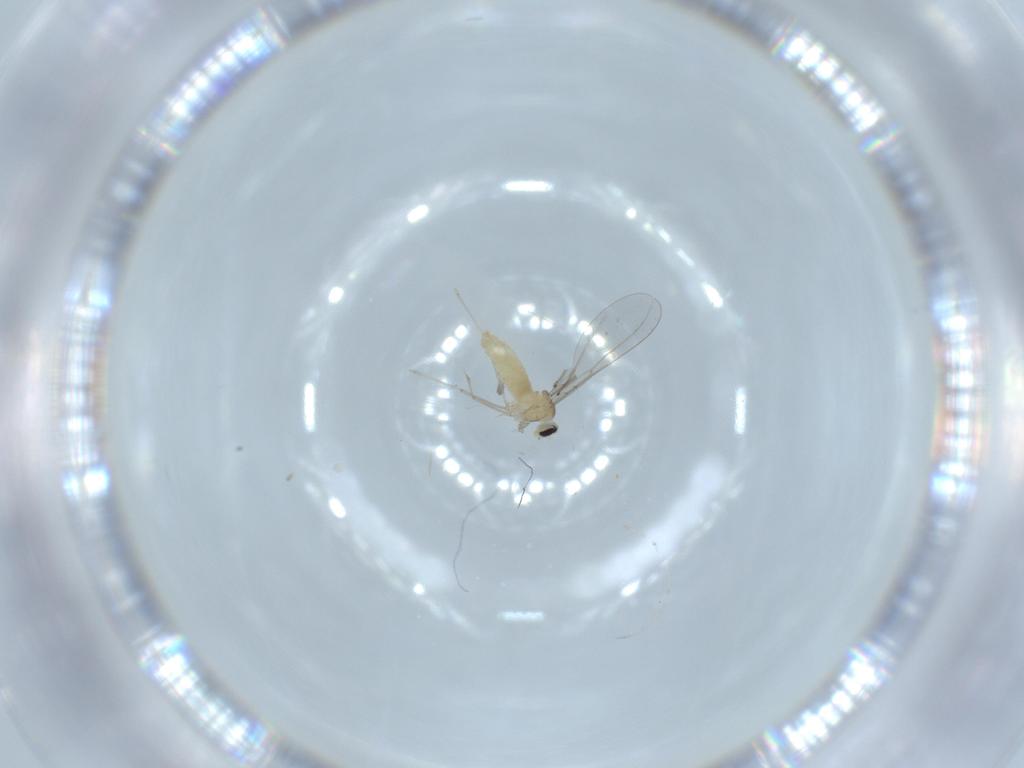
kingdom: Animalia
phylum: Arthropoda
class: Insecta
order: Diptera
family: Cecidomyiidae
